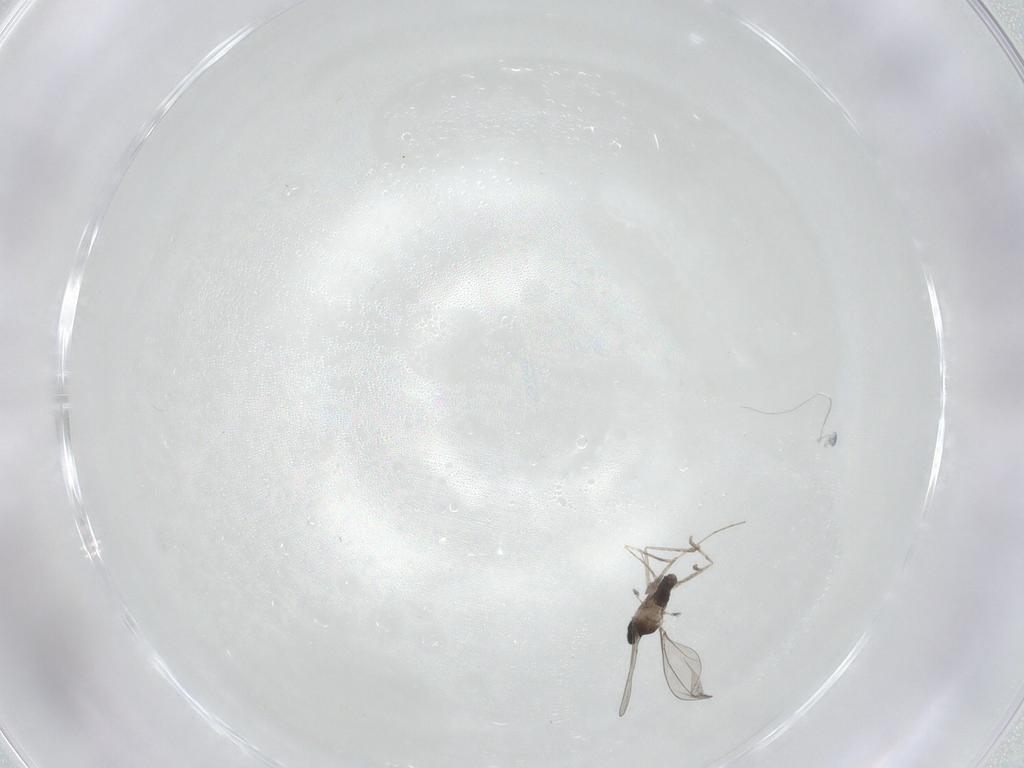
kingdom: Animalia
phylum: Arthropoda
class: Insecta
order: Diptera
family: Cecidomyiidae
